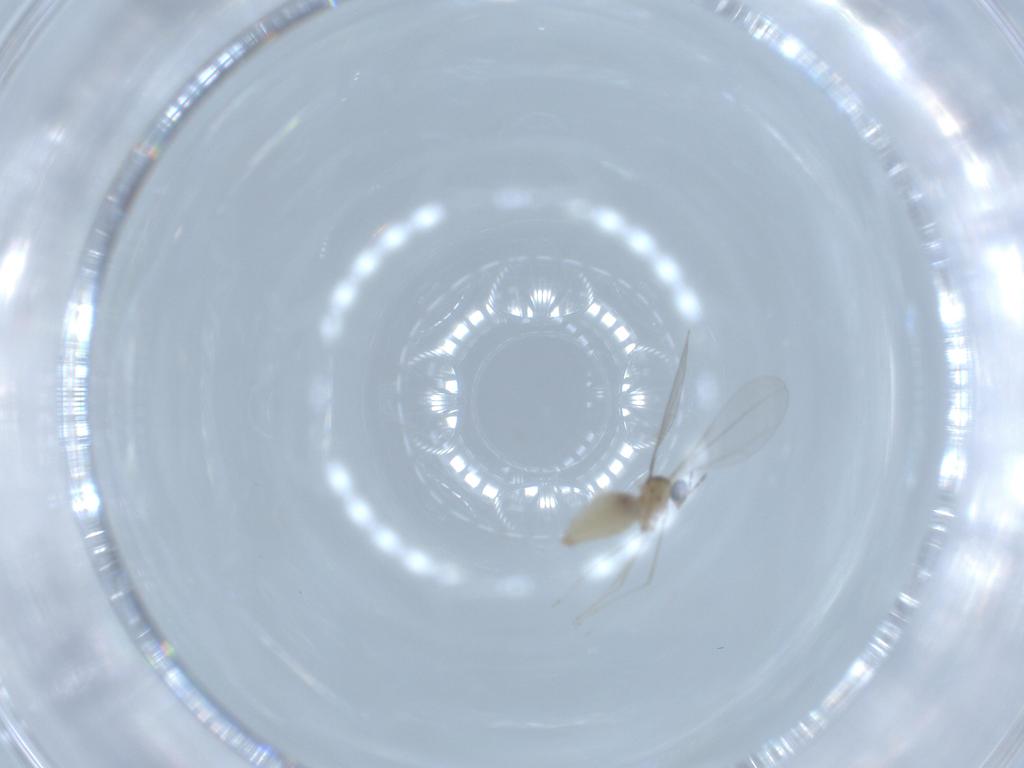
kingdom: Animalia
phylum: Arthropoda
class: Insecta
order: Diptera
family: Cecidomyiidae
